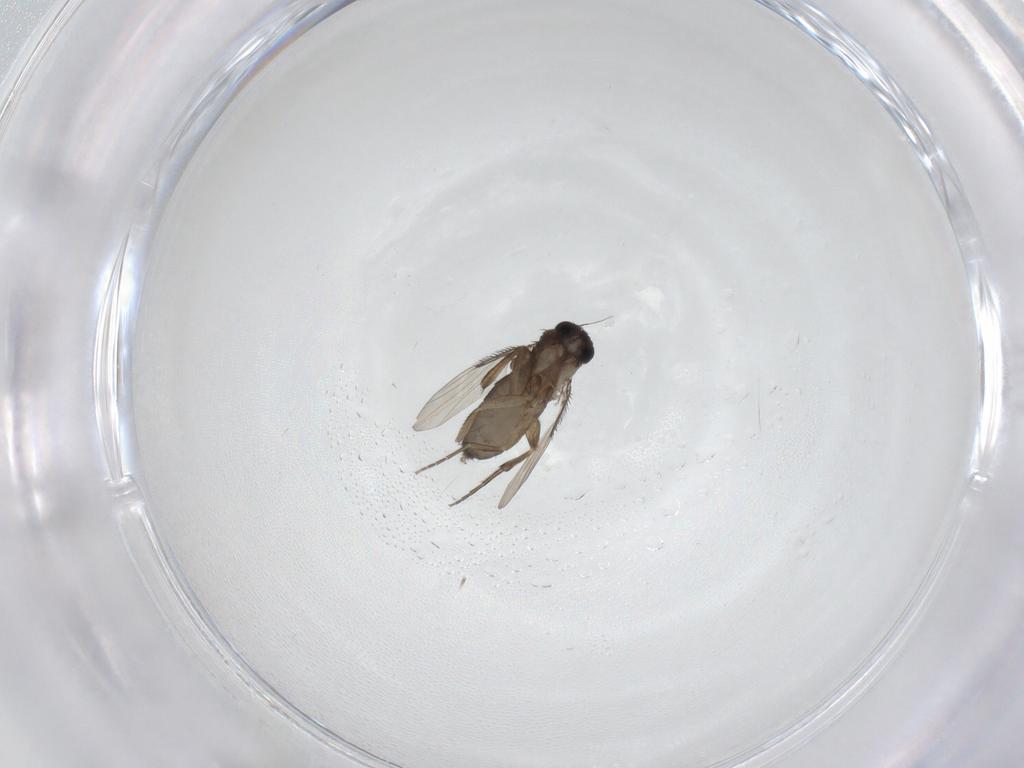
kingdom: Animalia
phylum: Arthropoda
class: Insecta
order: Diptera
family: Phoridae
